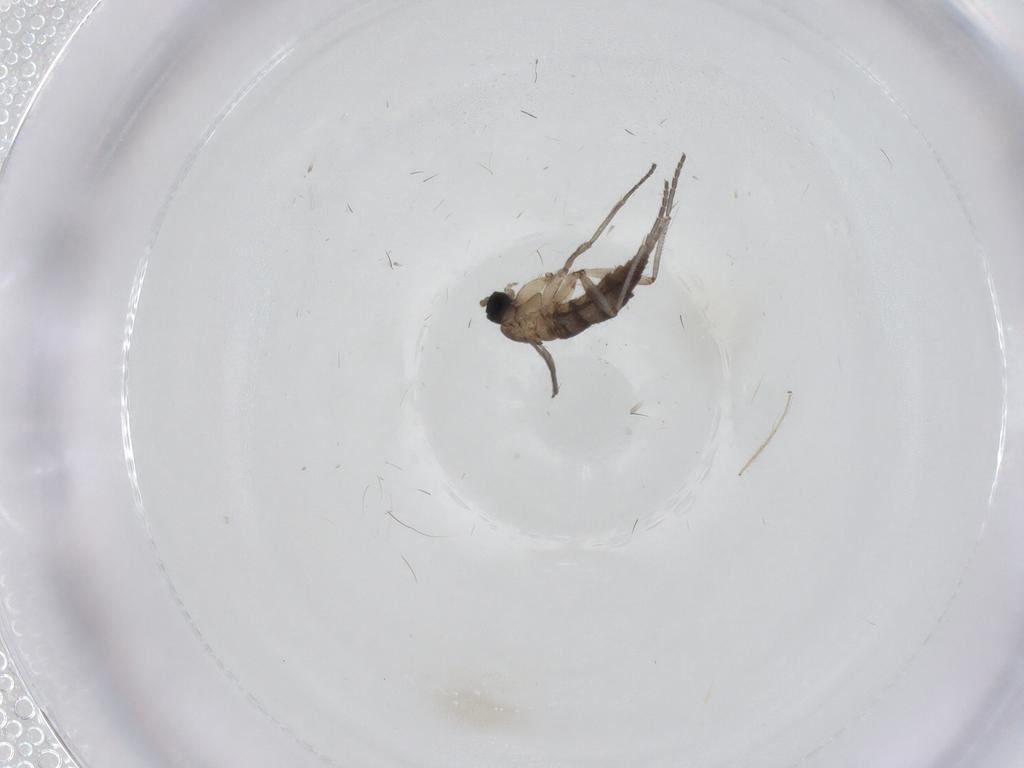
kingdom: Animalia
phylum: Arthropoda
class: Insecta
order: Diptera
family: Sciaridae
